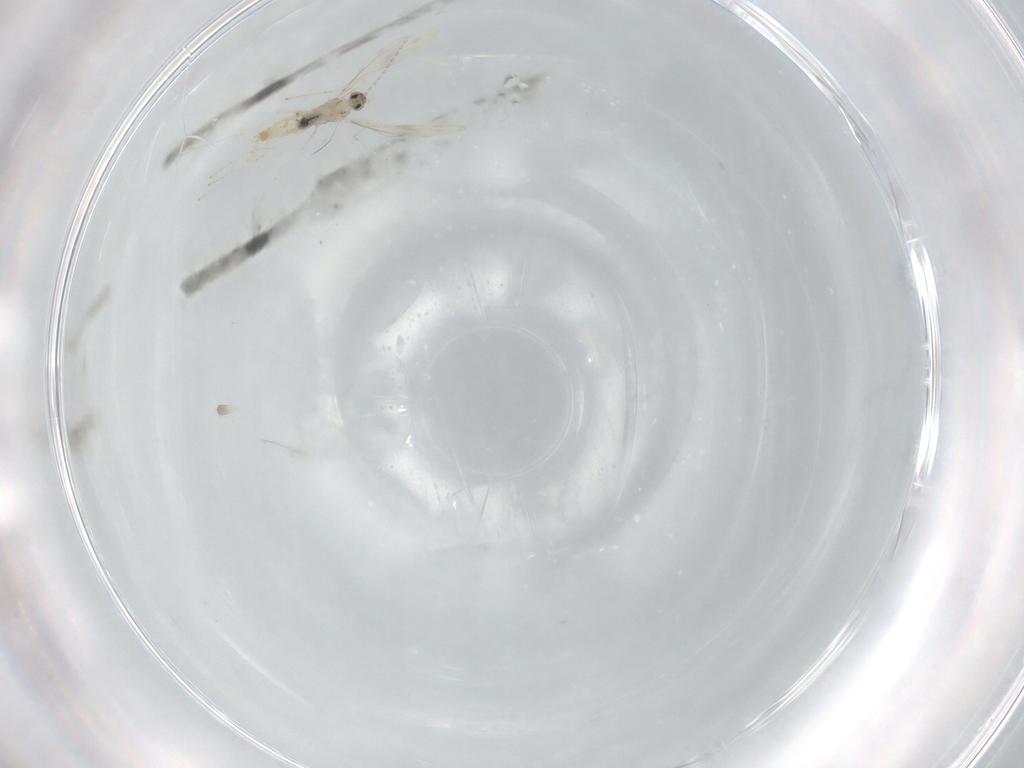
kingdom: Animalia
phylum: Arthropoda
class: Insecta
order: Diptera
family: Cecidomyiidae
